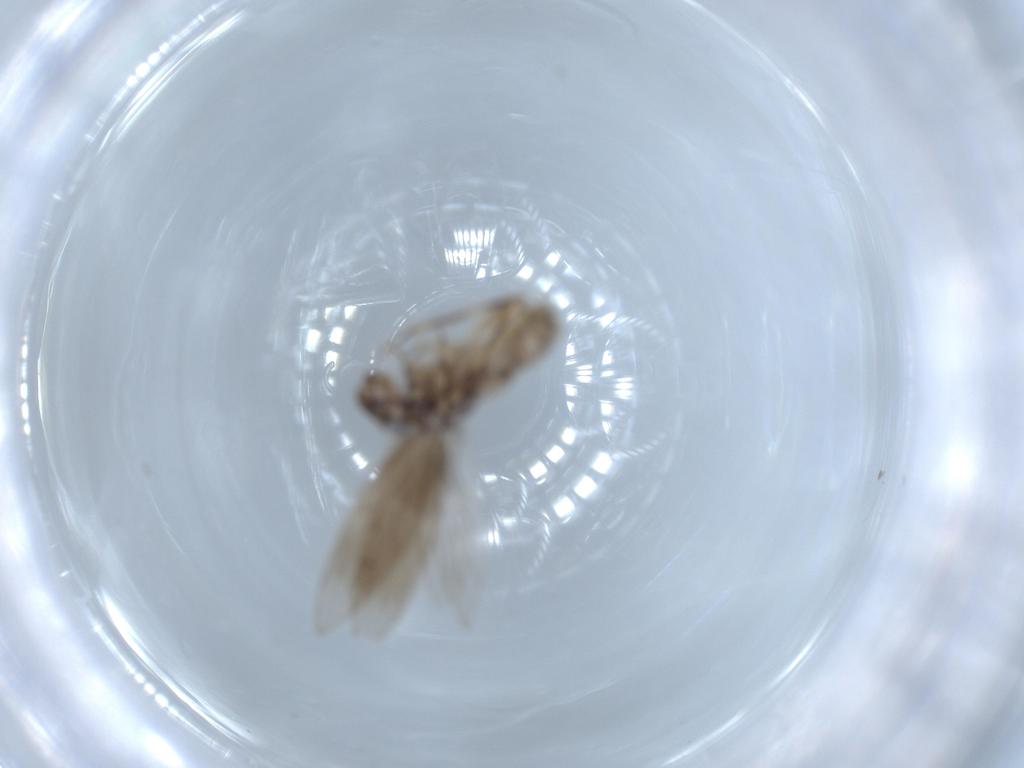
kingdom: Animalia
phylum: Arthropoda
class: Insecta
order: Psocodea
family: Lepidopsocidae
